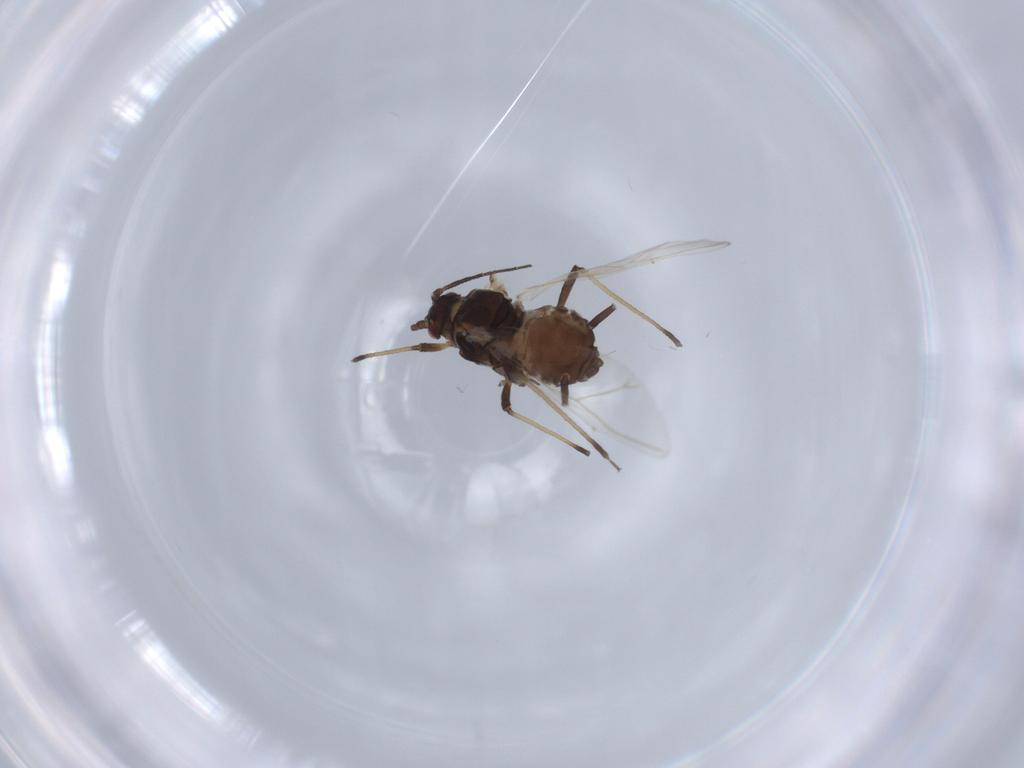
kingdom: Animalia
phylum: Arthropoda
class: Insecta
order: Hemiptera
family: Aphididae
